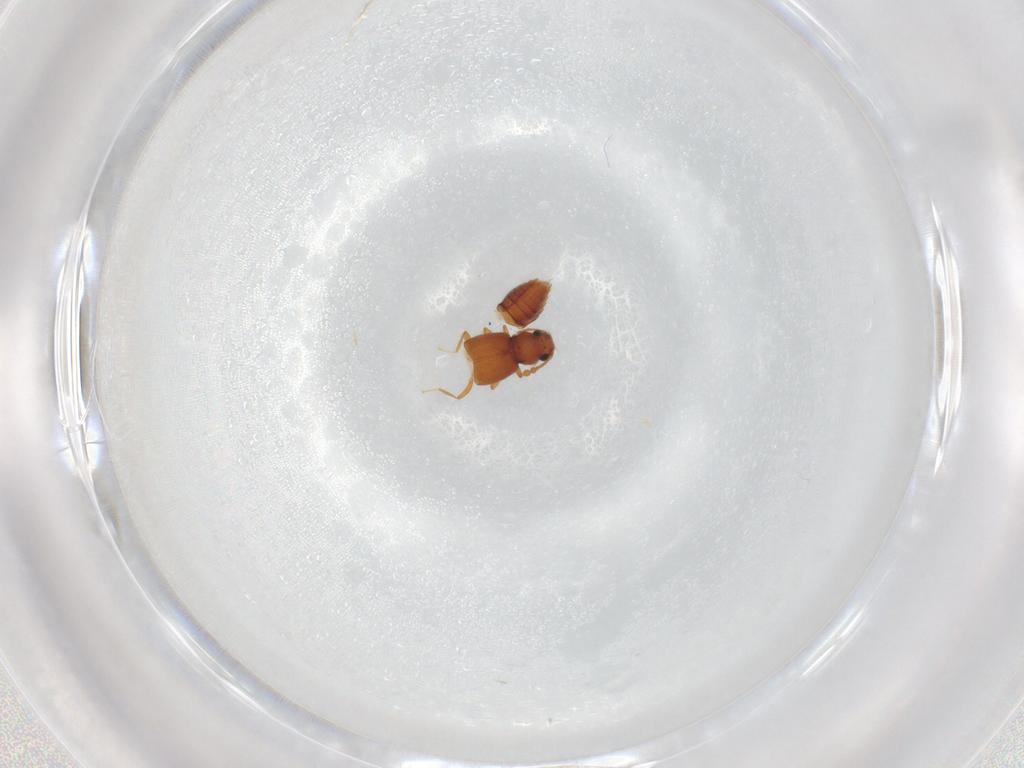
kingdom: Animalia
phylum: Arthropoda
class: Insecta
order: Coleoptera
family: Staphylinidae
